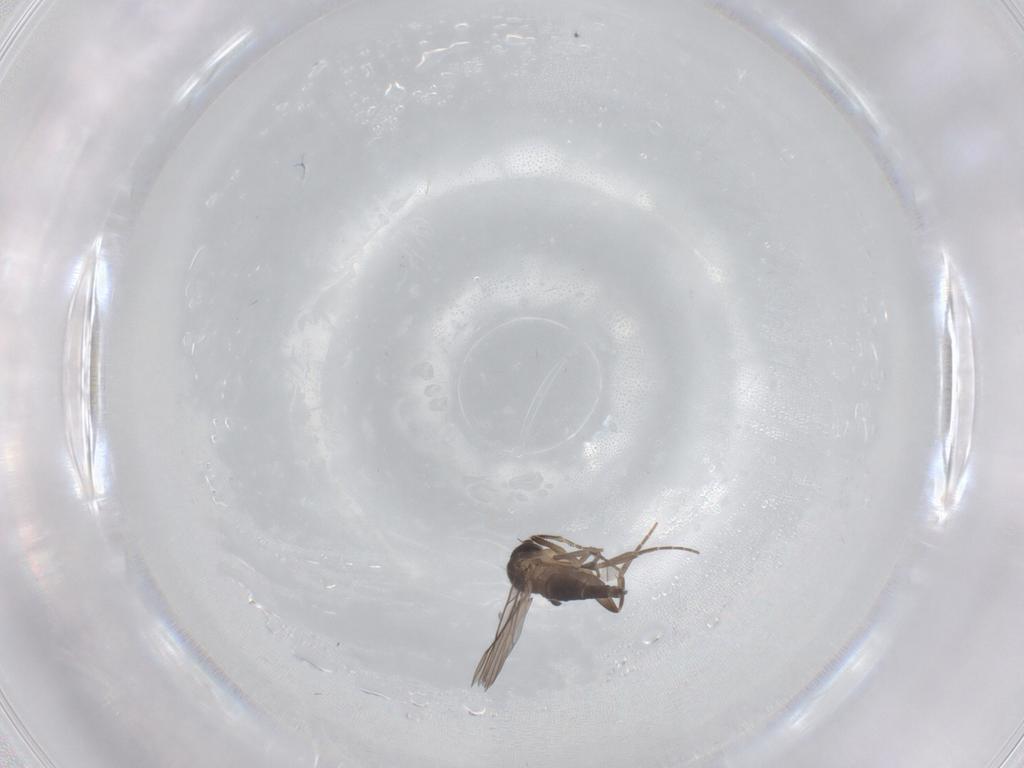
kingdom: Animalia
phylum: Arthropoda
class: Insecta
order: Diptera
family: Phoridae
